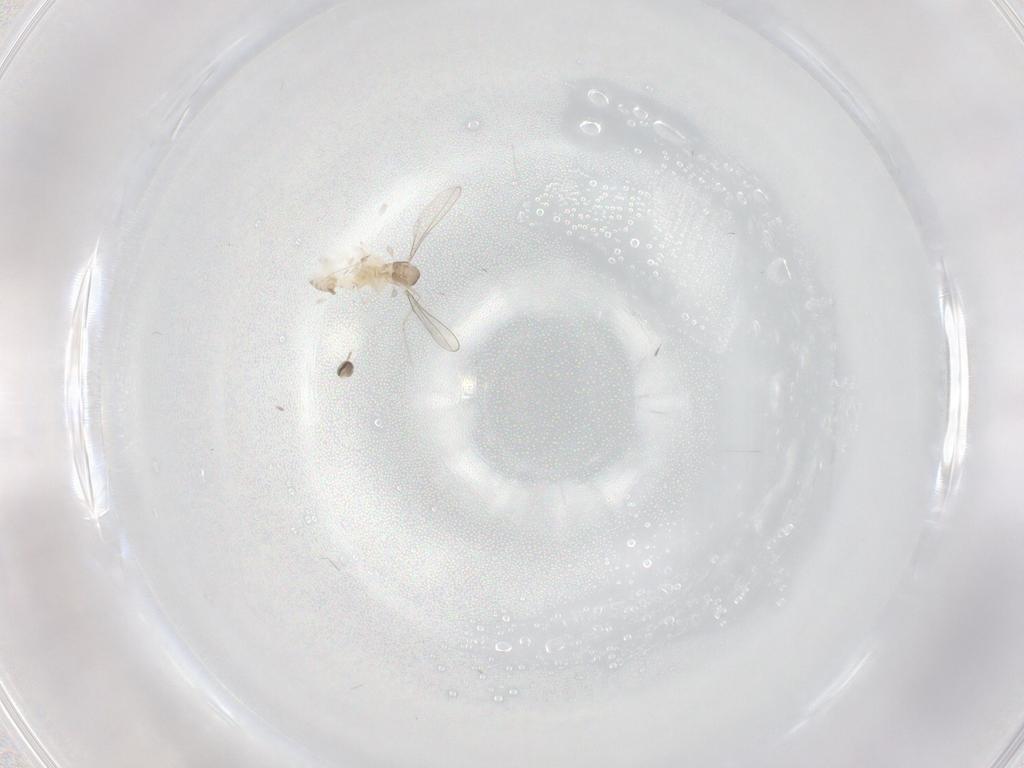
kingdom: Animalia
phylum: Arthropoda
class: Insecta
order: Diptera
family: Cecidomyiidae
